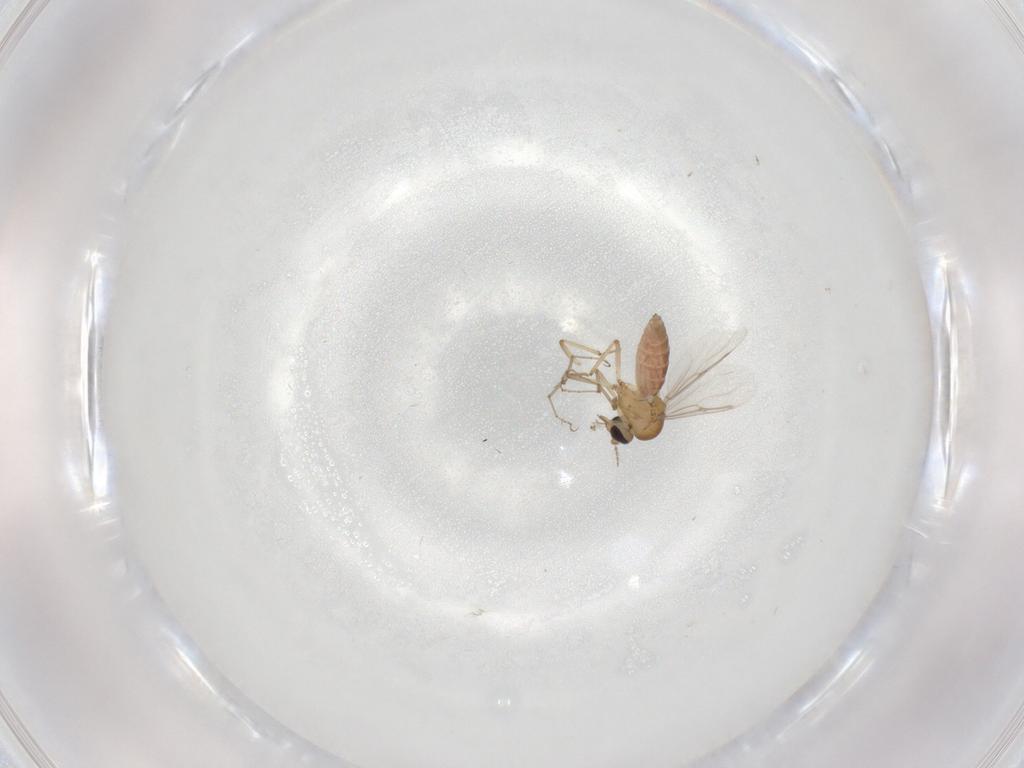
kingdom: Animalia
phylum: Arthropoda
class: Insecta
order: Diptera
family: Ceratopogonidae
